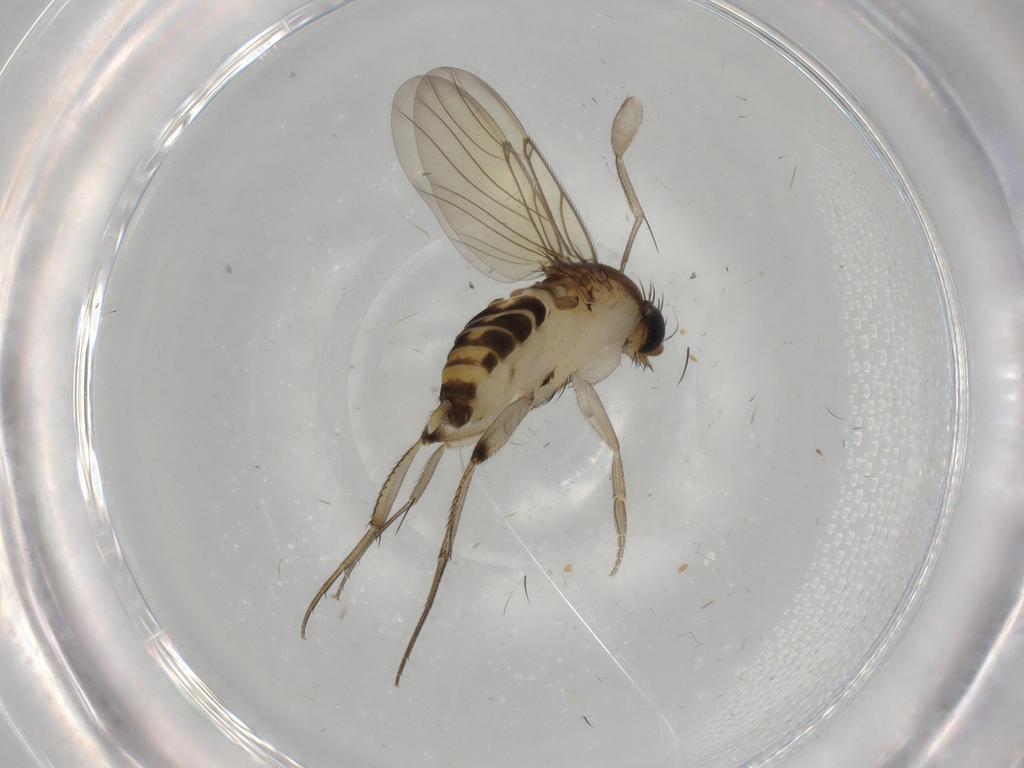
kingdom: Animalia
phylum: Arthropoda
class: Insecta
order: Diptera
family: Phoridae
